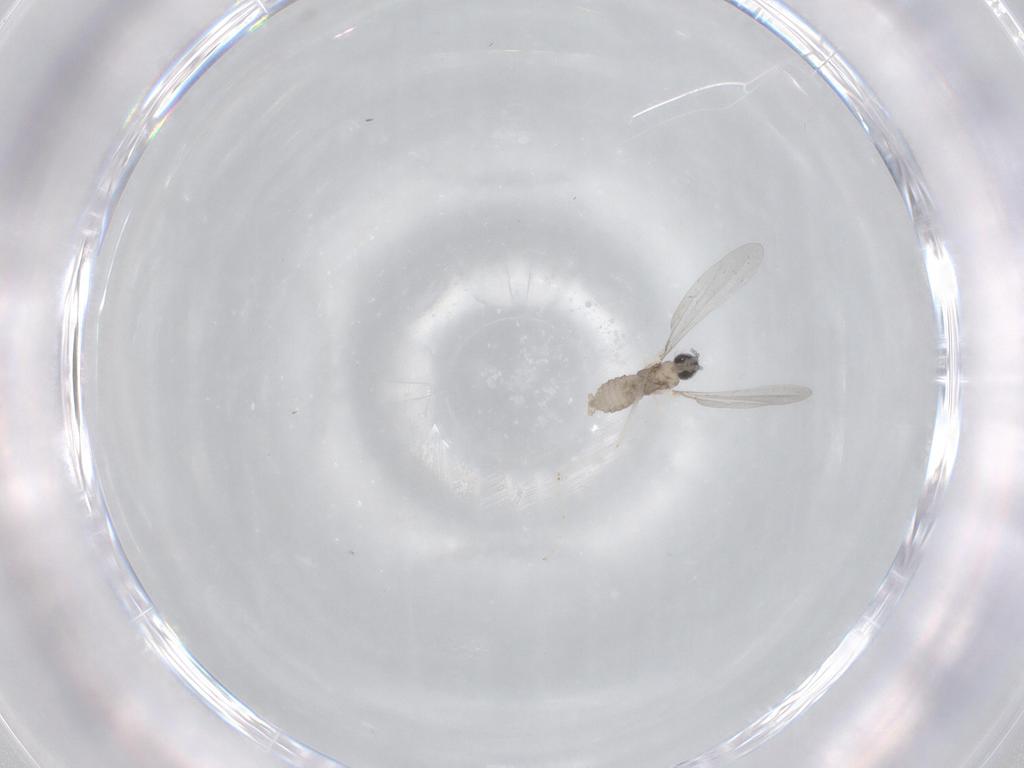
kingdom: Animalia
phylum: Arthropoda
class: Insecta
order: Diptera
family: Cecidomyiidae
